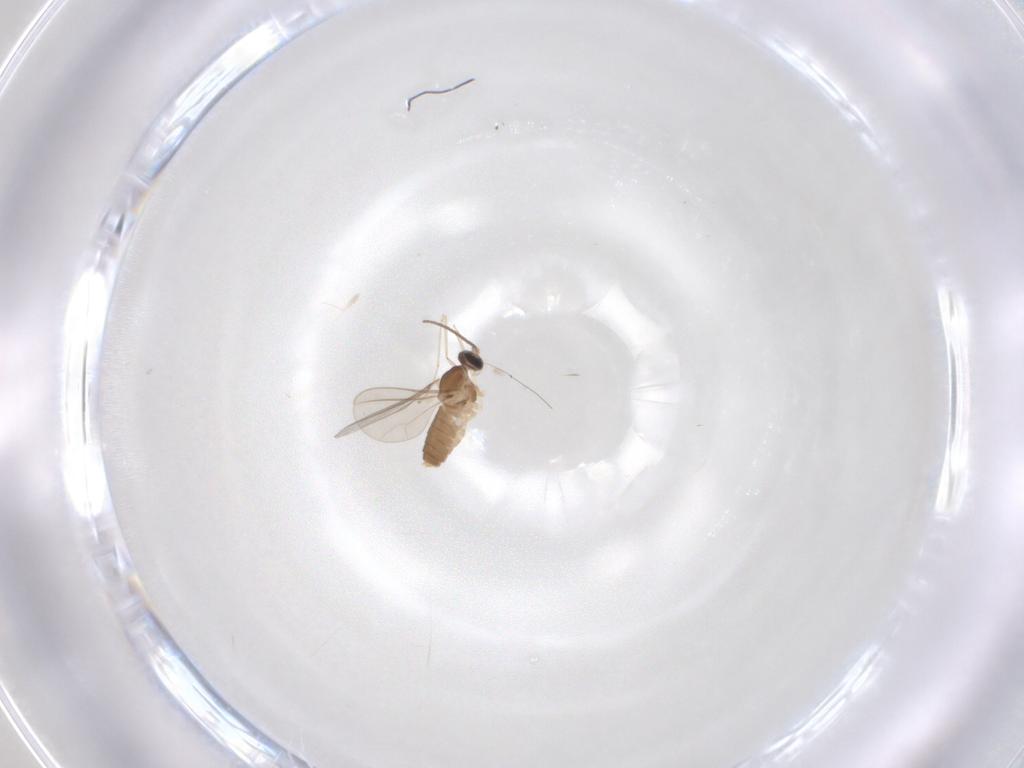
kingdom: Animalia
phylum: Arthropoda
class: Insecta
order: Diptera
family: Cecidomyiidae
